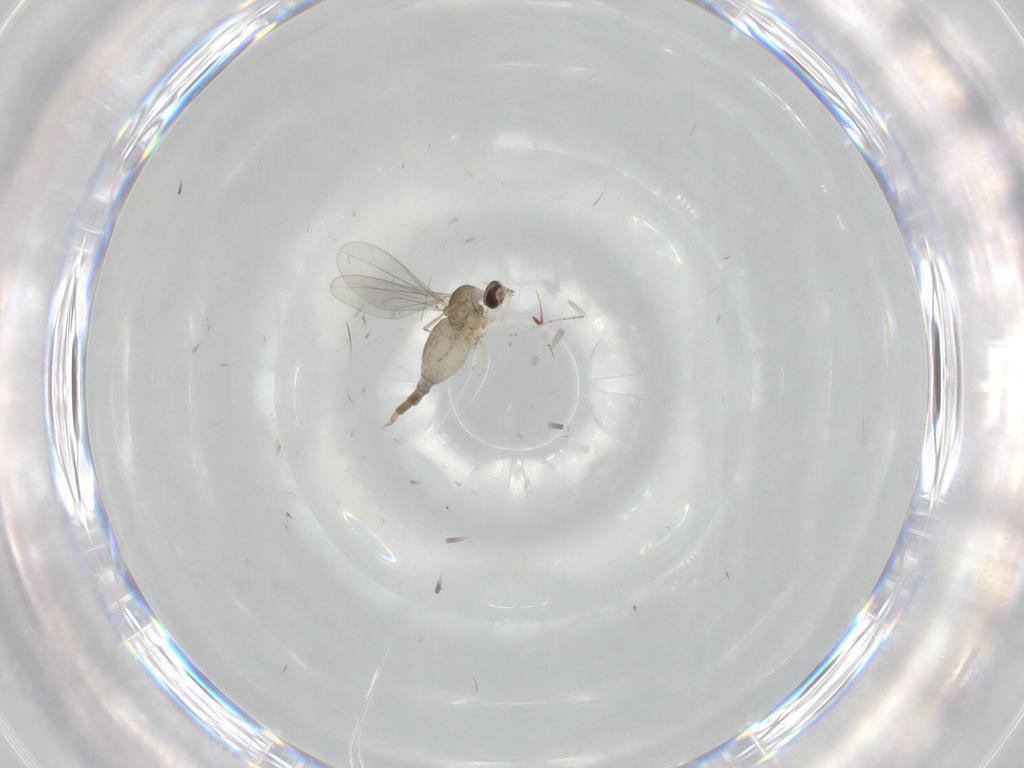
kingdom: Animalia
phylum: Arthropoda
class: Insecta
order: Diptera
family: Cecidomyiidae
